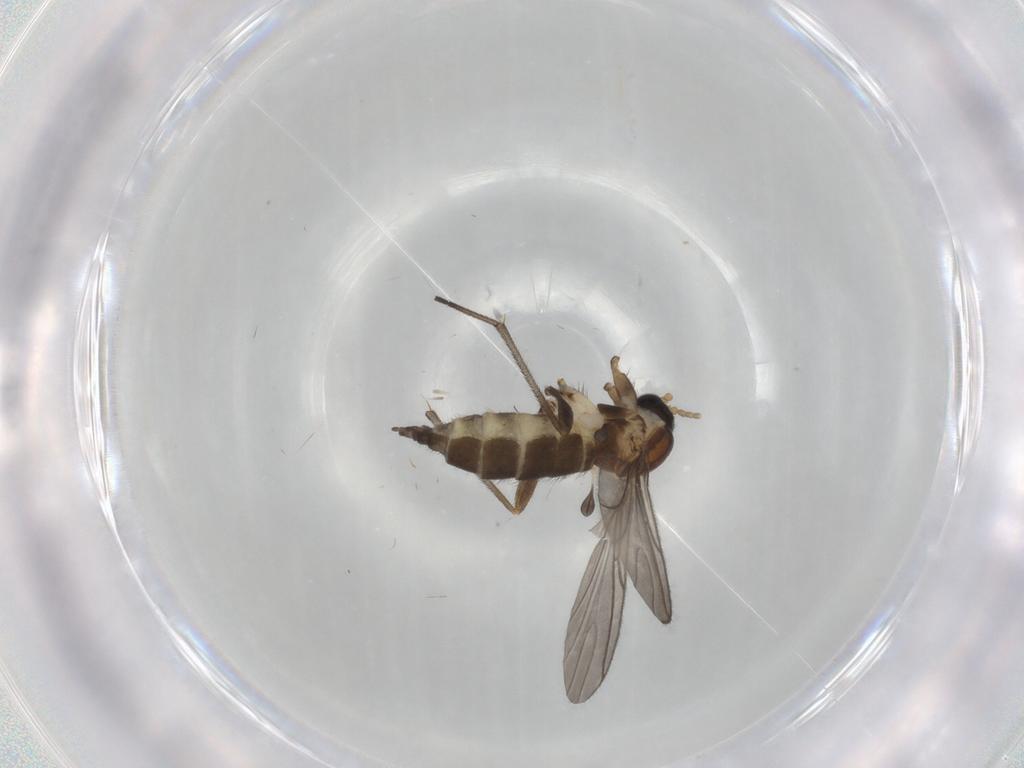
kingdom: Animalia
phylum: Arthropoda
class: Insecta
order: Diptera
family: Sciaridae
